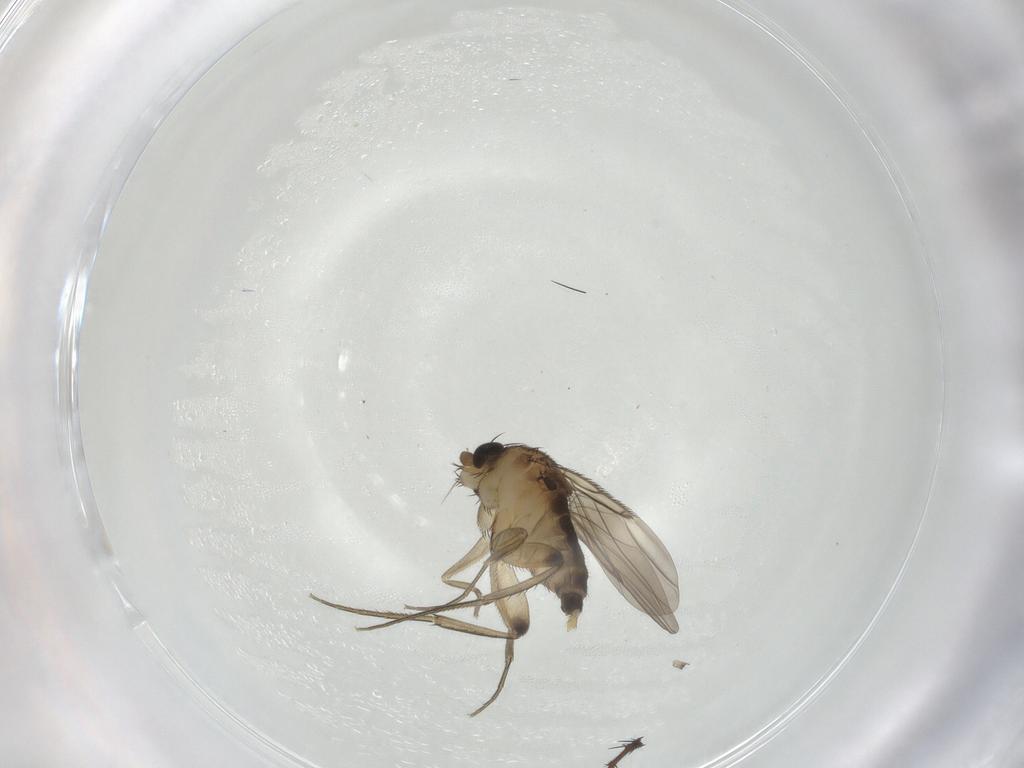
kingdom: Animalia
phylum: Arthropoda
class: Insecta
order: Diptera
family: Sphaeroceridae
